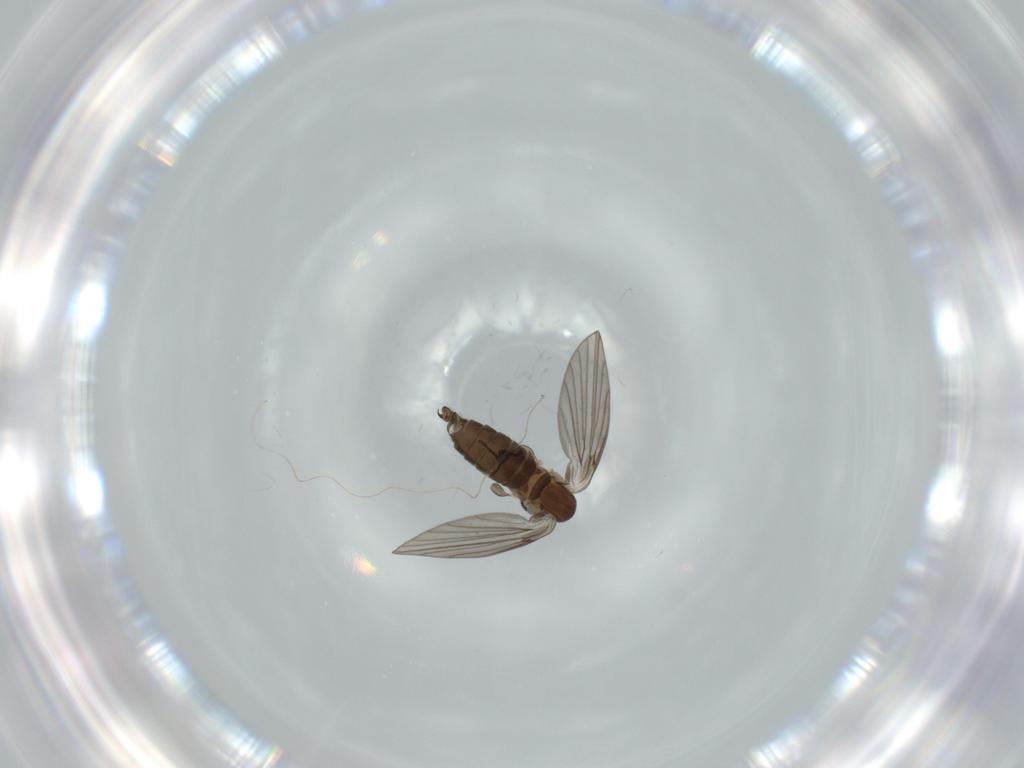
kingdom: Animalia
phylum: Arthropoda
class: Insecta
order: Diptera
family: Psychodidae
